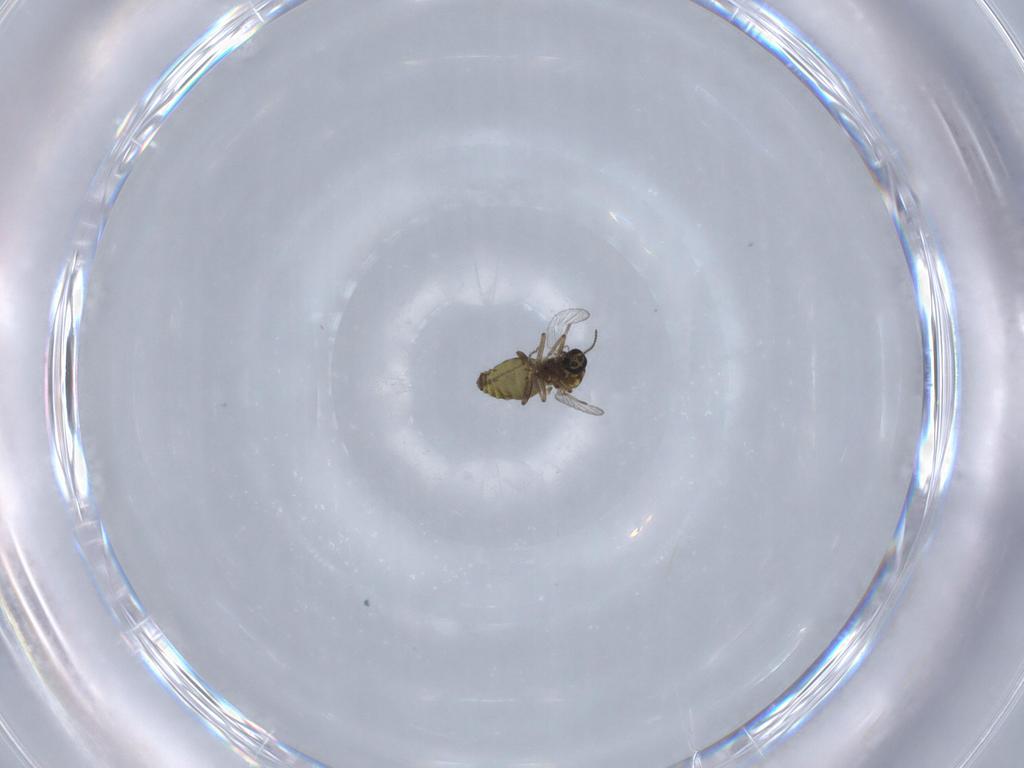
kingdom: Animalia
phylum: Arthropoda
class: Insecta
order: Diptera
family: Ceratopogonidae
